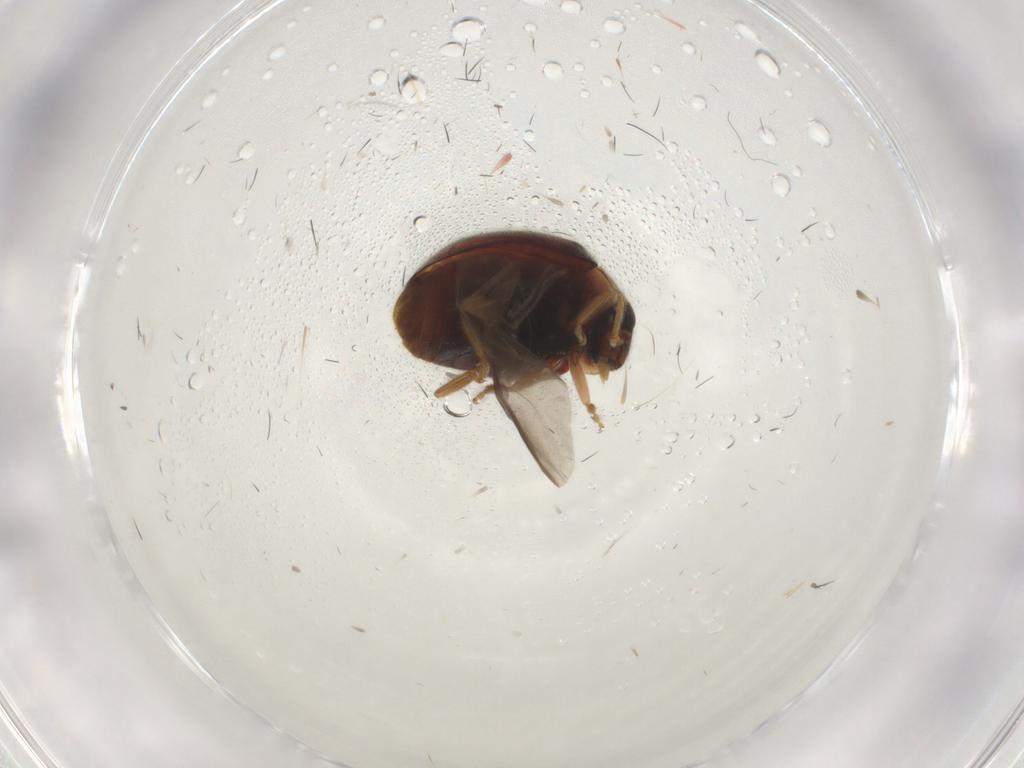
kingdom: Animalia
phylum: Arthropoda
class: Insecta
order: Coleoptera
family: Coccinellidae
